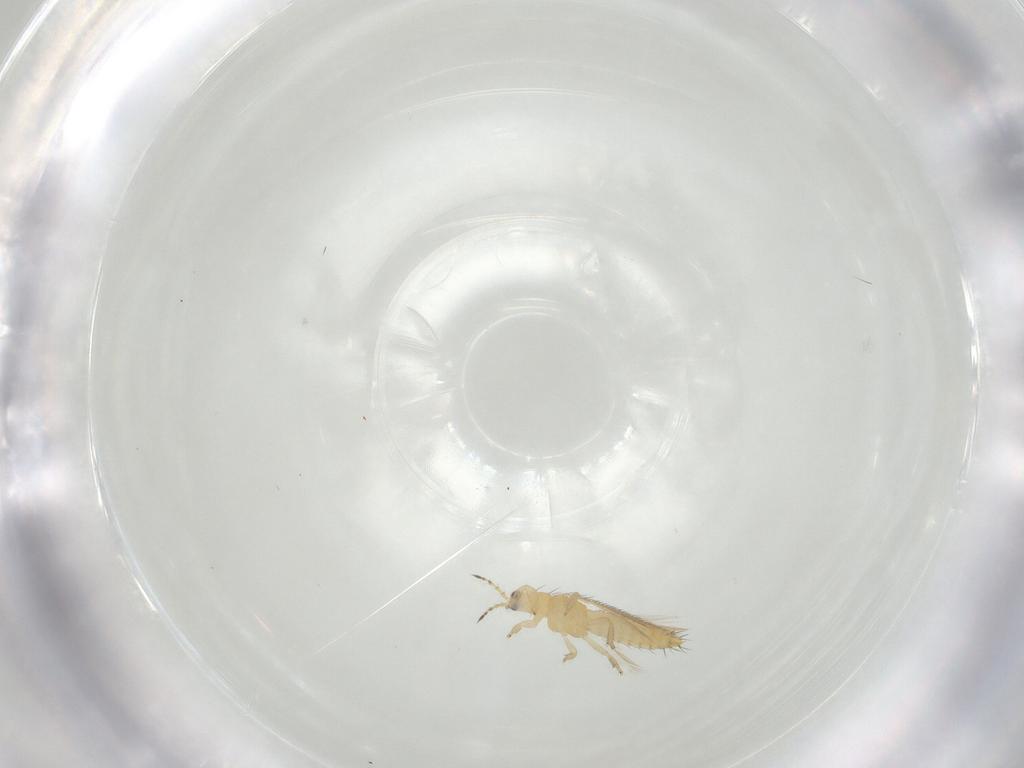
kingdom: Animalia
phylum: Arthropoda
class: Insecta
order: Thysanoptera
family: Thripidae
